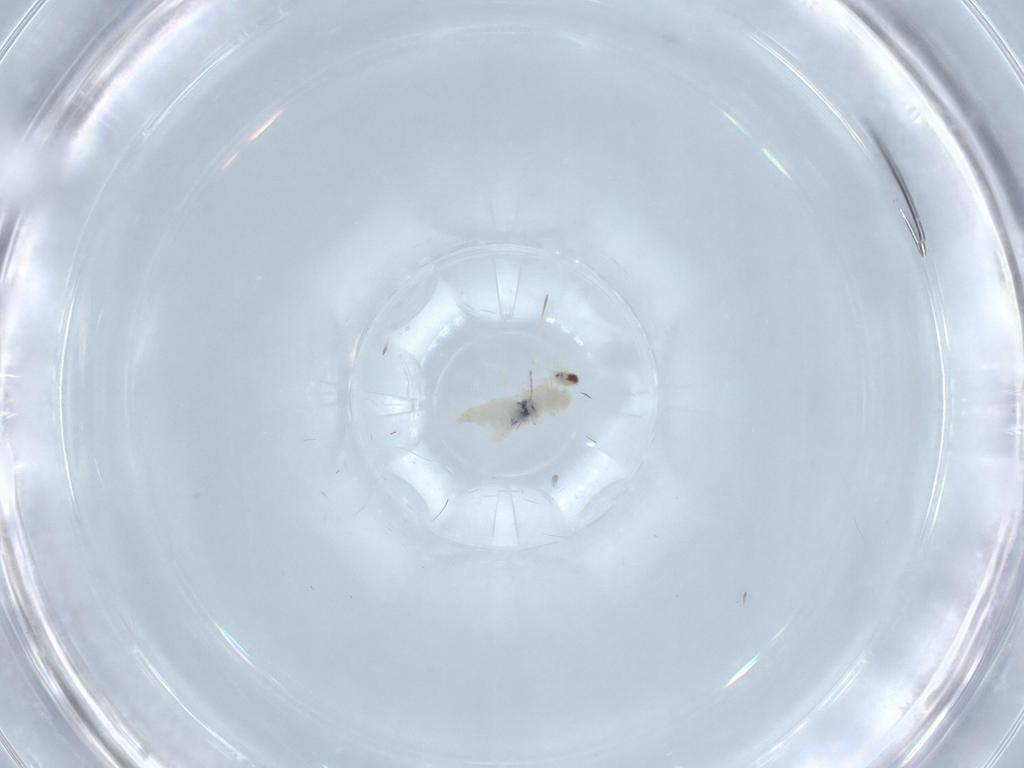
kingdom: Animalia
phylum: Arthropoda
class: Insecta
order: Diptera
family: Cecidomyiidae
